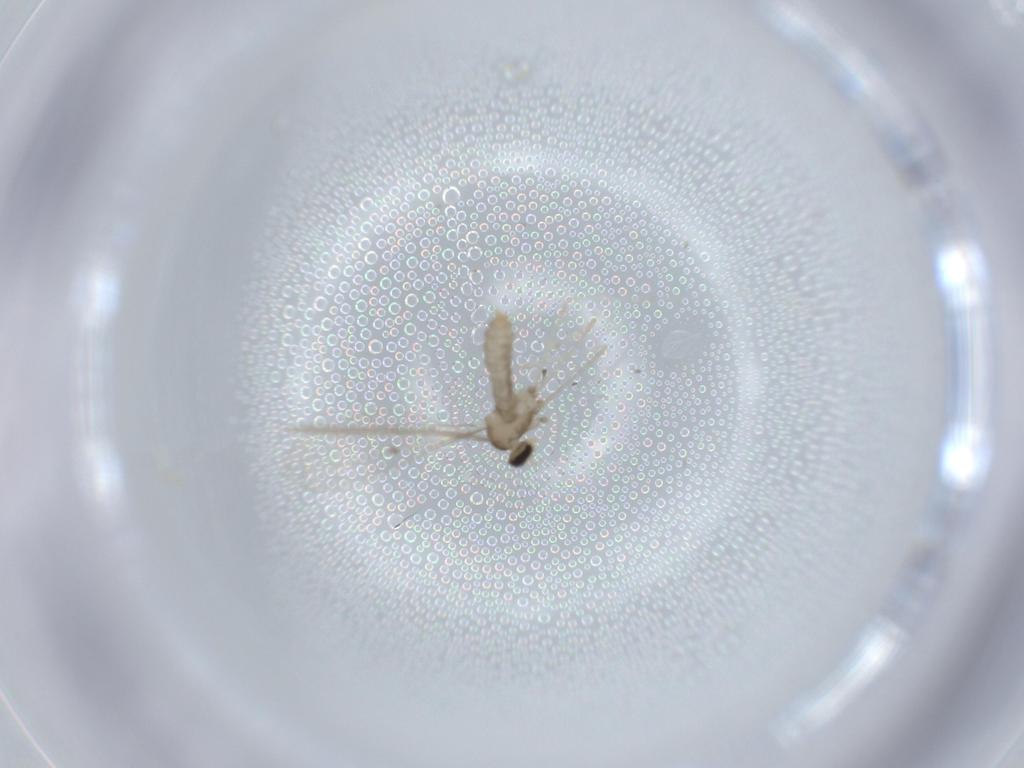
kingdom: Animalia
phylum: Arthropoda
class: Insecta
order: Diptera
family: Cecidomyiidae
